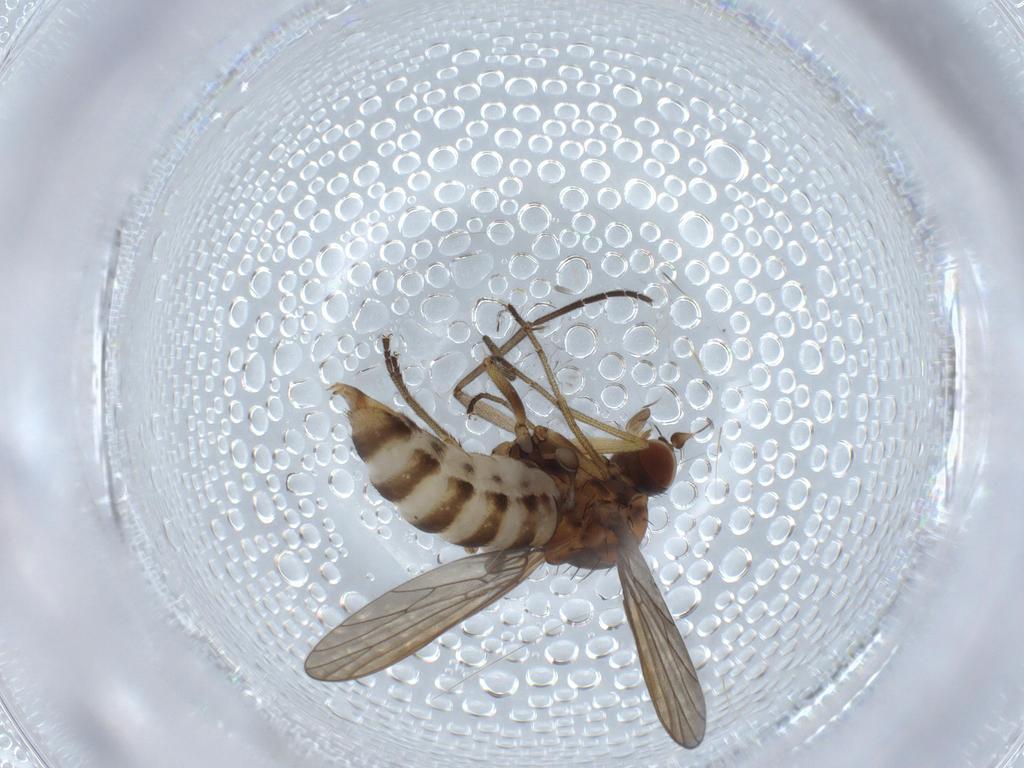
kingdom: Animalia
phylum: Arthropoda
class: Insecta
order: Diptera
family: Empididae
